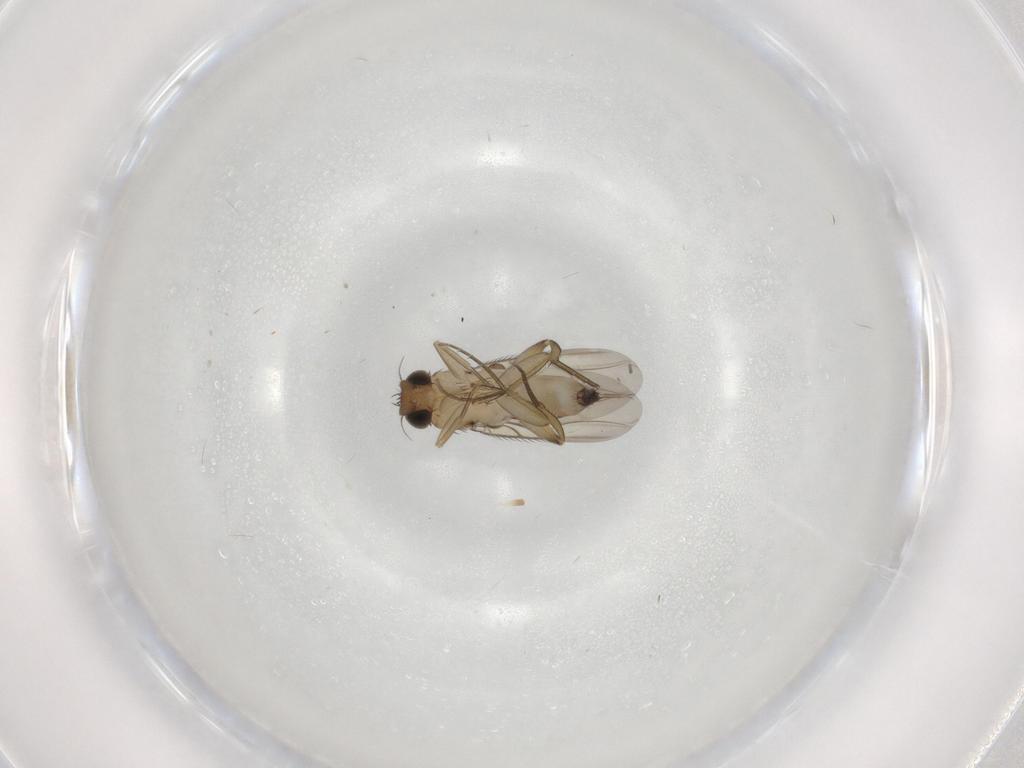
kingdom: Animalia
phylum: Arthropoda
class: Insecta
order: Diptera
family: Phoridae
